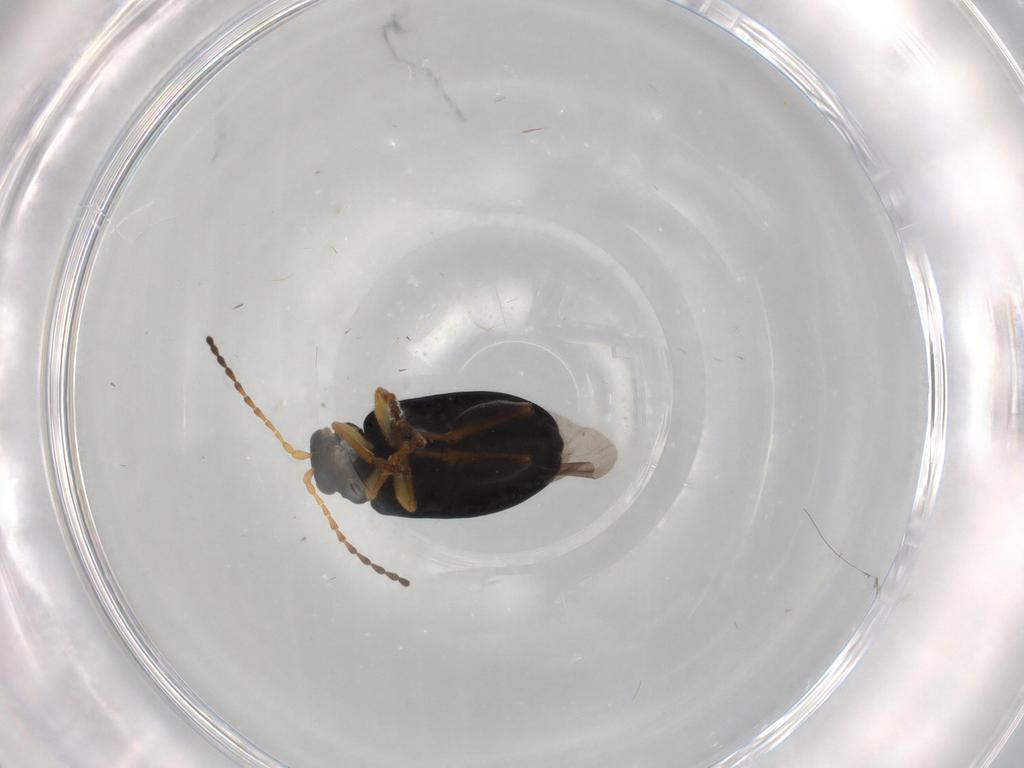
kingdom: Animalia
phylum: Arthropoda
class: Insecta
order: Coleoptera
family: Chrysomelidae
